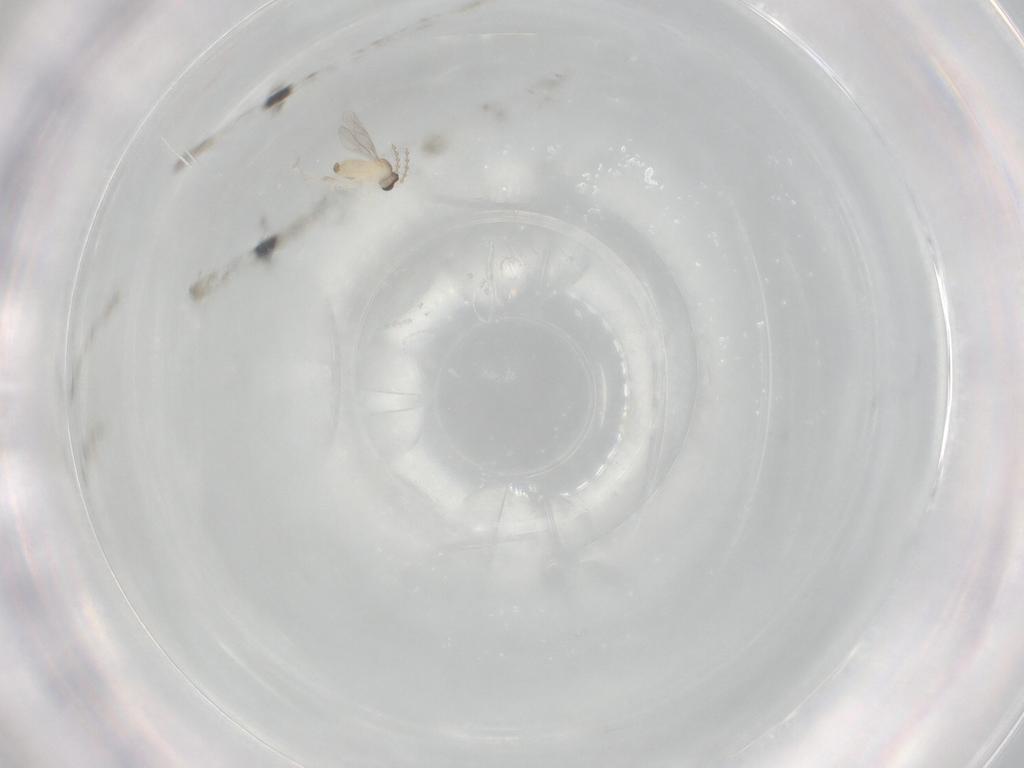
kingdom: Animalia
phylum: Arthropoda
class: Insecta
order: Diptera
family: Cecidomyiidae
